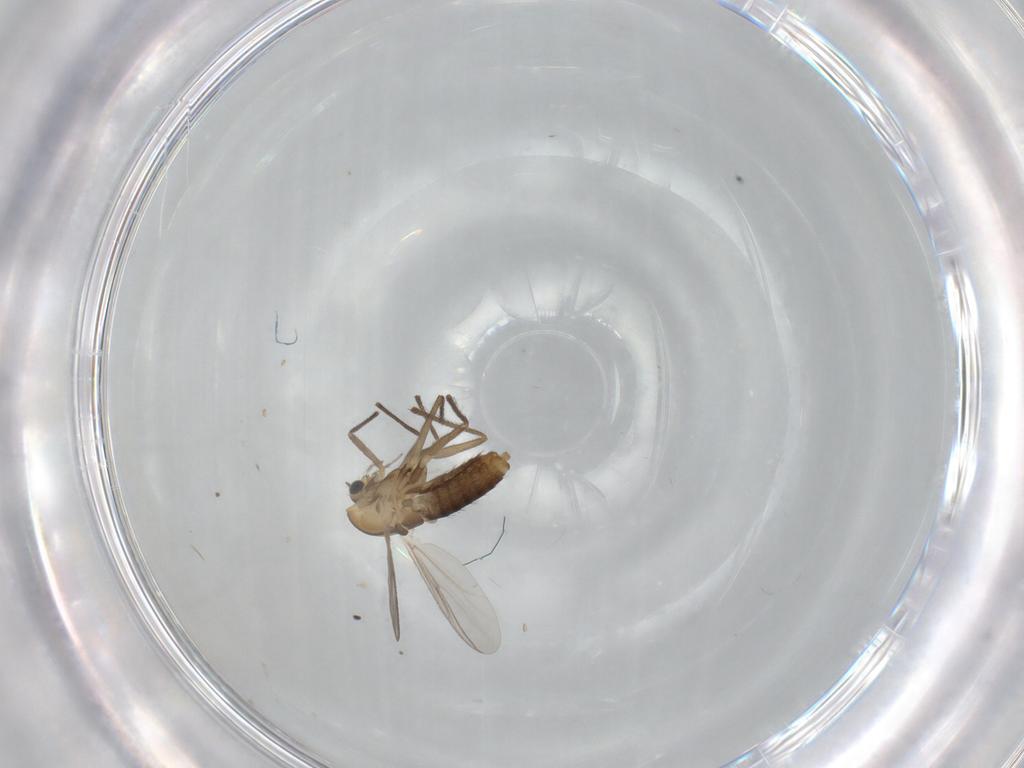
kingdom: Animalia
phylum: Arthropoda
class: Insecta
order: Diptera
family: Chironomidae
